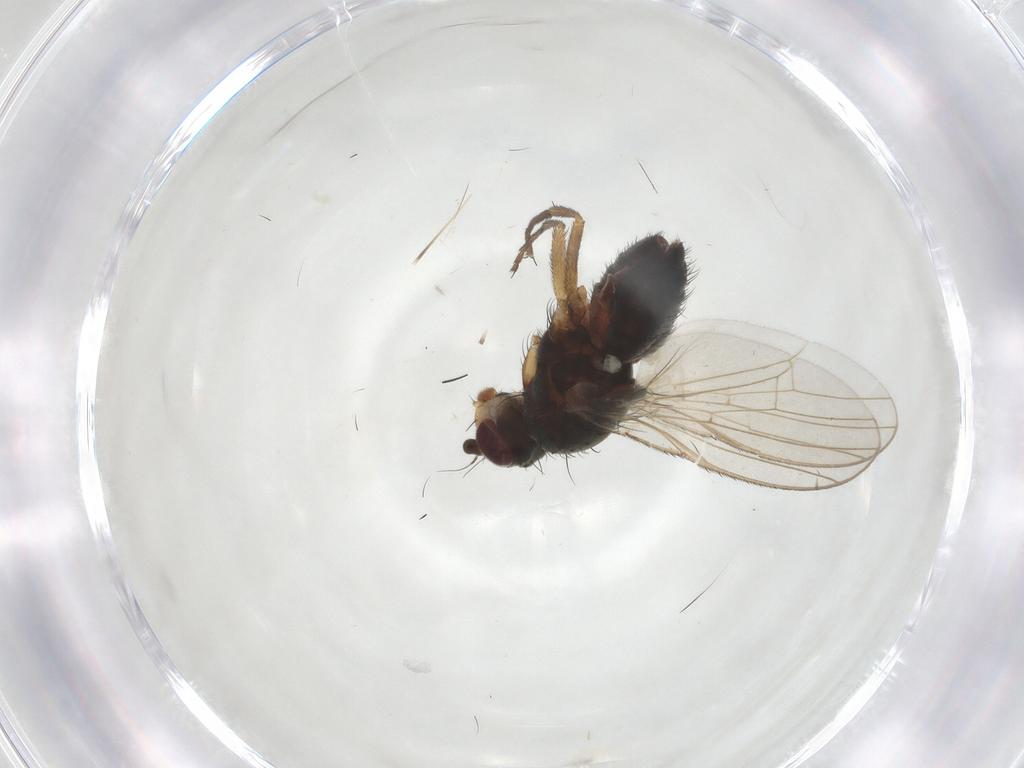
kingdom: Animalia
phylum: Arthropoda
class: Insecta
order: Diptera
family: Heleomyzidae
